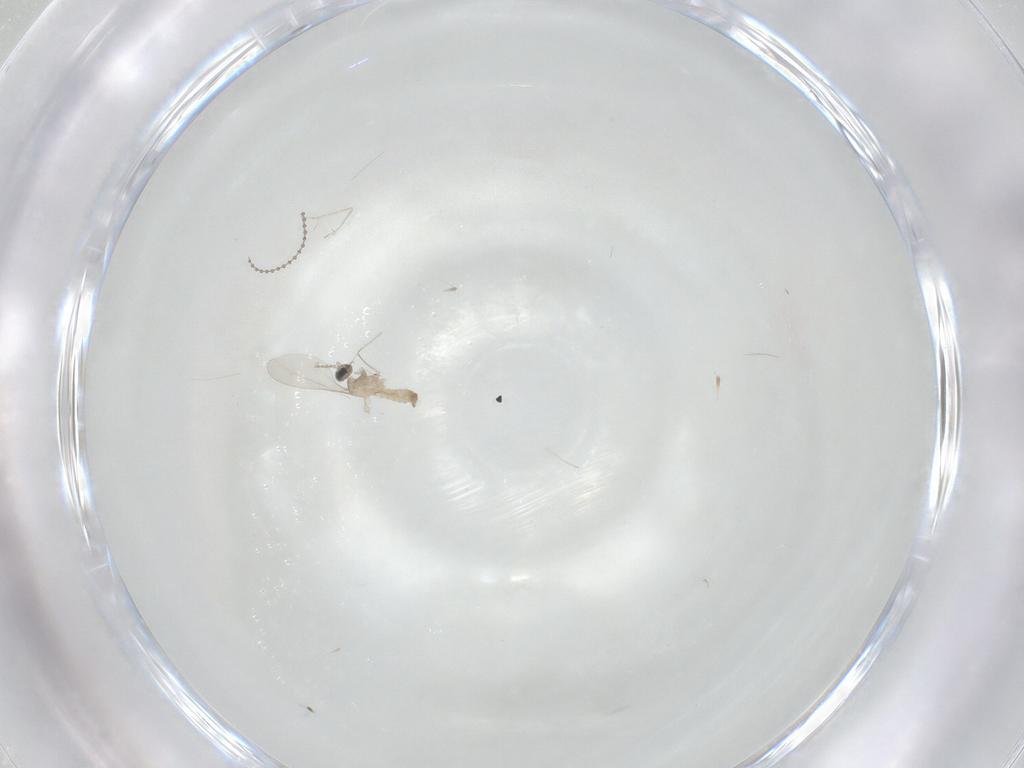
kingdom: Animalia
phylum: Arthropoda
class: Insecta
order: Diptera
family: Cecidomyiidae
